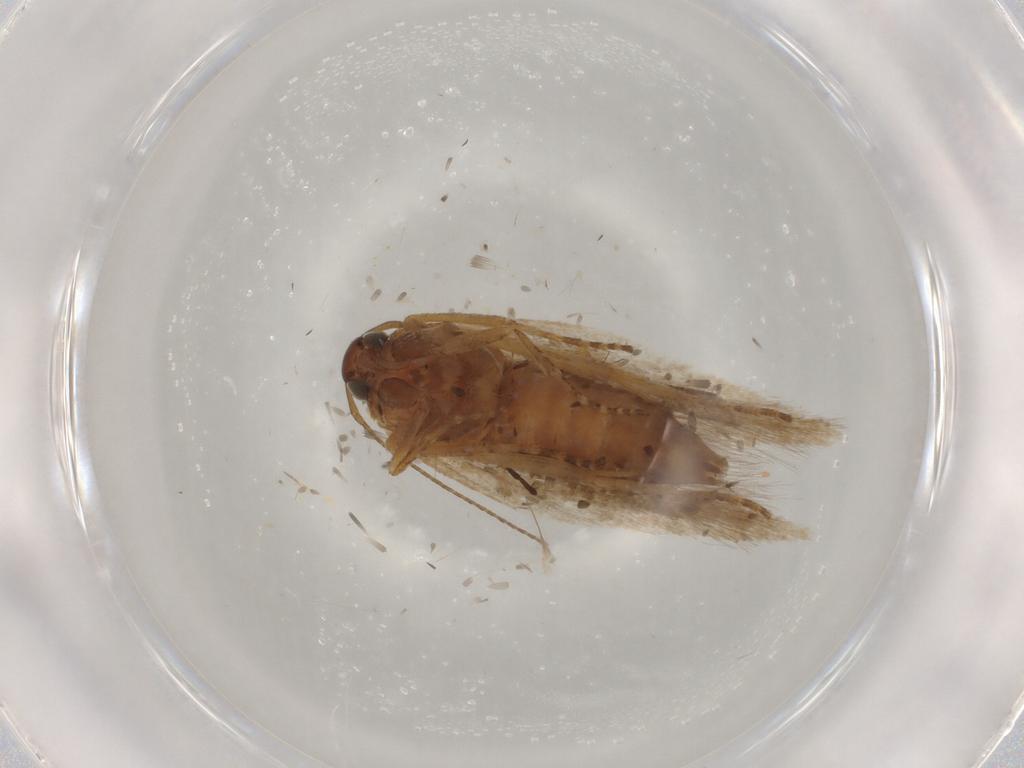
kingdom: Animalia
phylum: Arthropoda
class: Insecta
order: Lepidoptera
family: Blastobasidae
